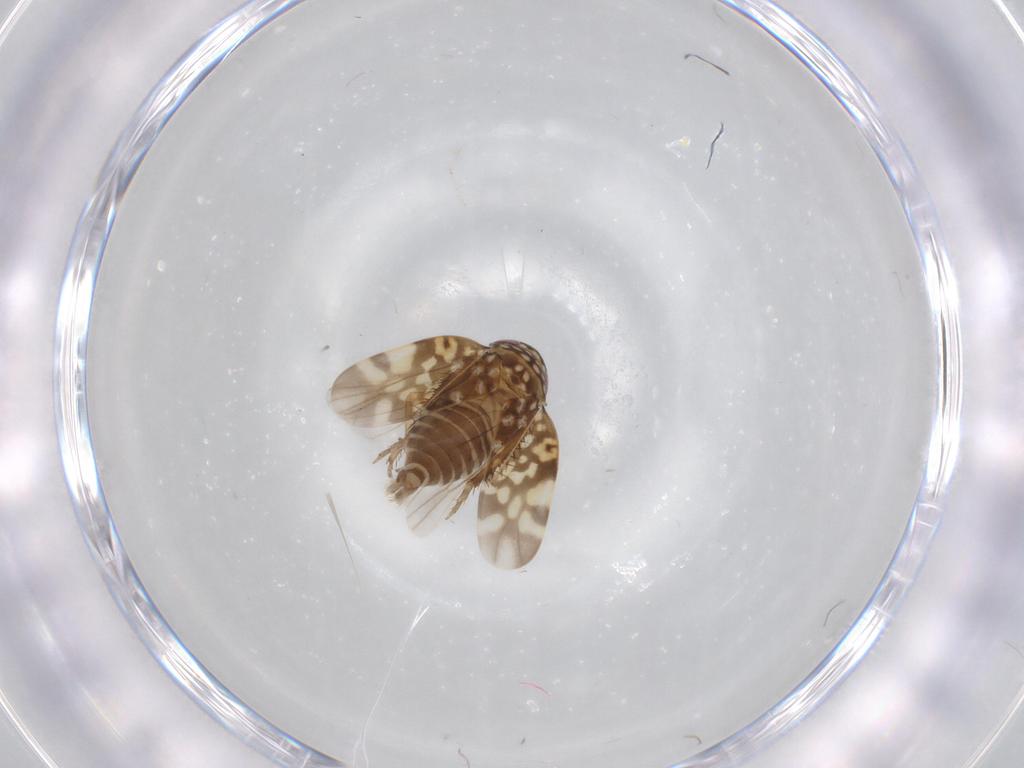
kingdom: Animalia
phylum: Arthropoda
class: Insecta
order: Hemiptera
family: Cicadellidae
